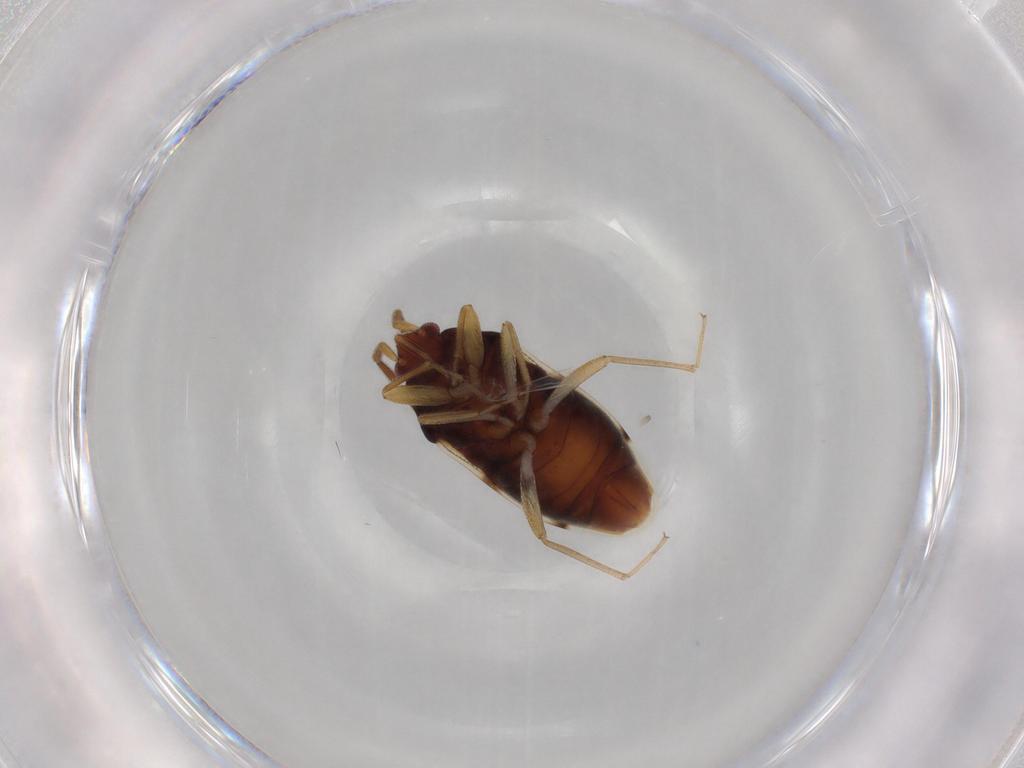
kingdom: Animalia
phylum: Arthropoda
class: Insecta
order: Hemiptera
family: Rhyparochromidae
